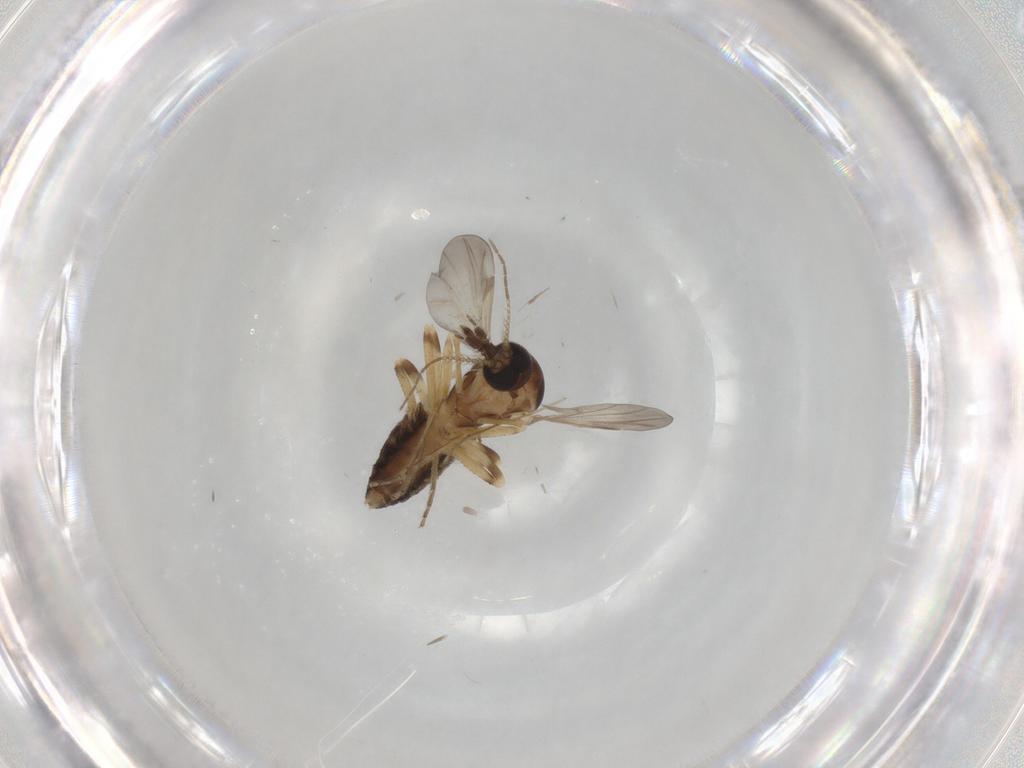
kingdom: Animalia
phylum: Arthropoda
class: Insecta
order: Diptera
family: Ceratopogonidae
